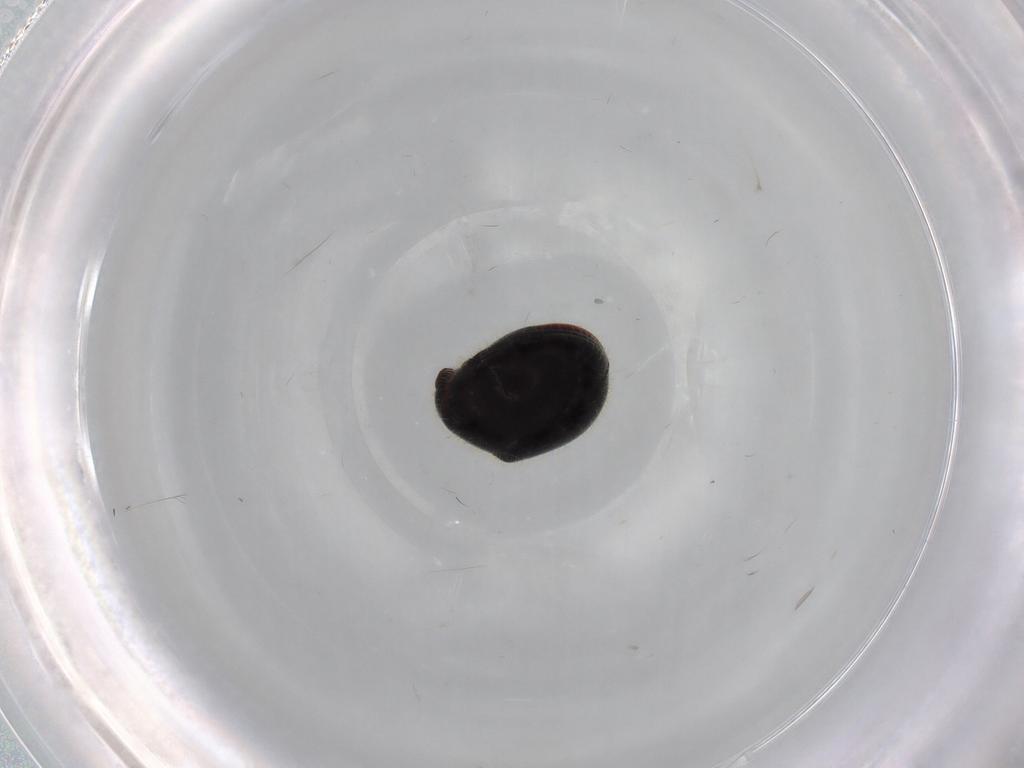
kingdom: Animalia
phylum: Arthropoda
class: Insecta
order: Coleoptera
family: Ptinidae
